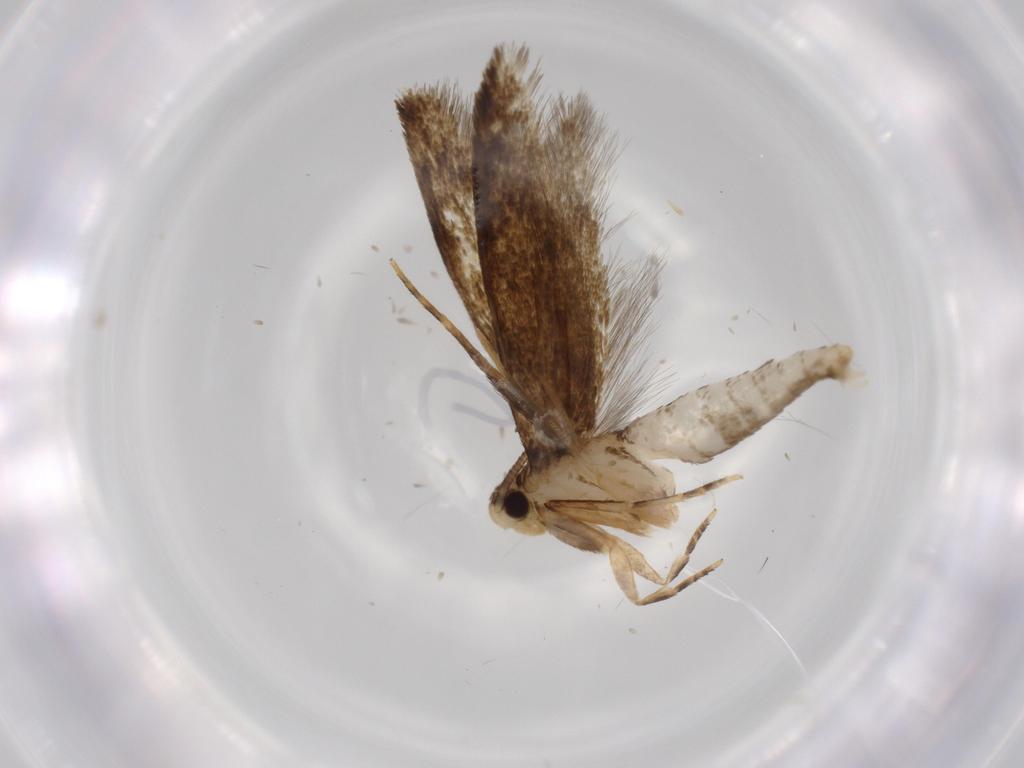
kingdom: Animalia
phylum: Arthropoda
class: Insecta
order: Lepidoptera
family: Tineidae
